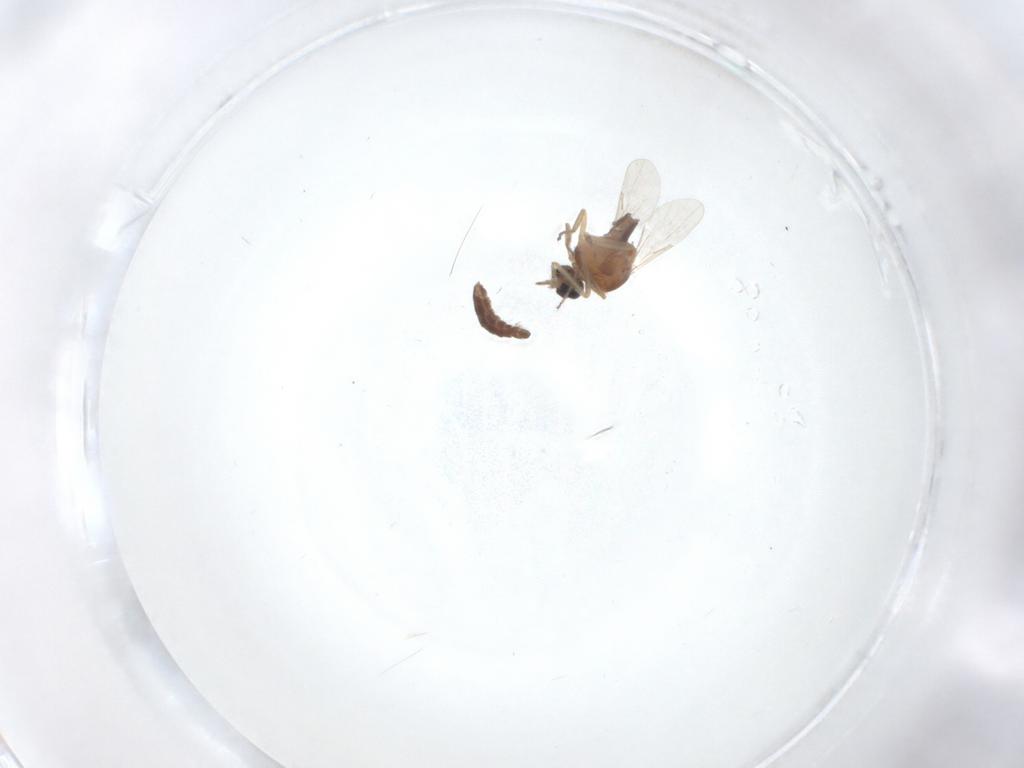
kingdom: Animalia
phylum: Arthropoda
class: Insecta
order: Diptera
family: Ceratopogonidae
